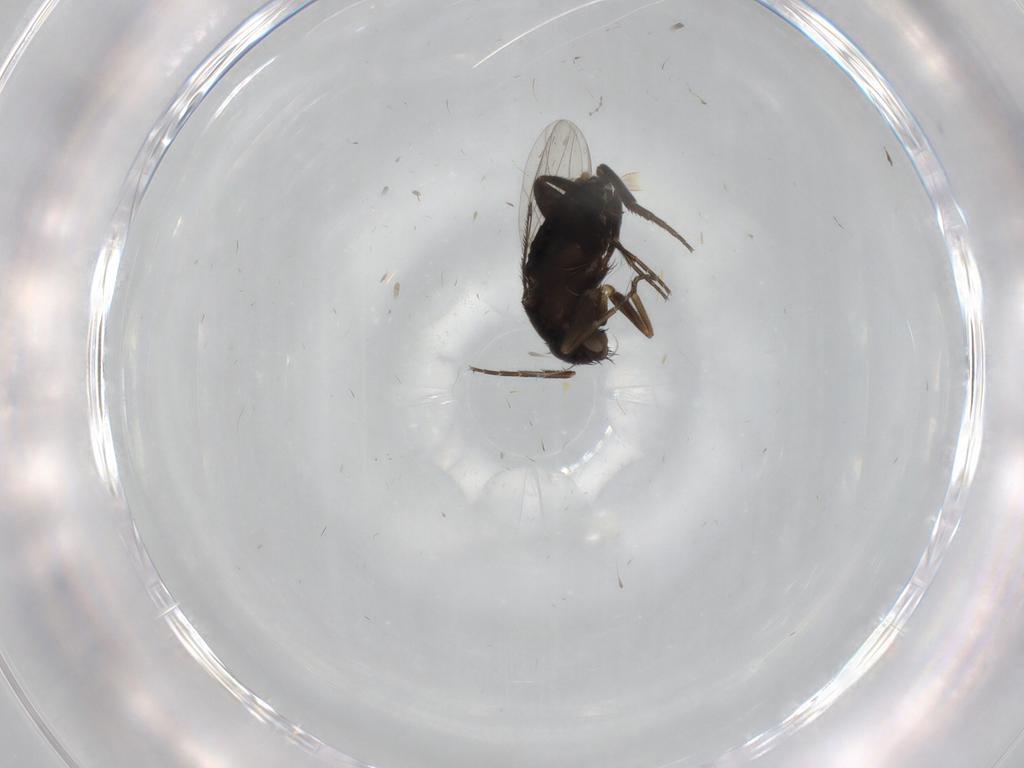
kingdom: Animalia
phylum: Arthropoda
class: Insecta
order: Diptera
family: Phoridae
